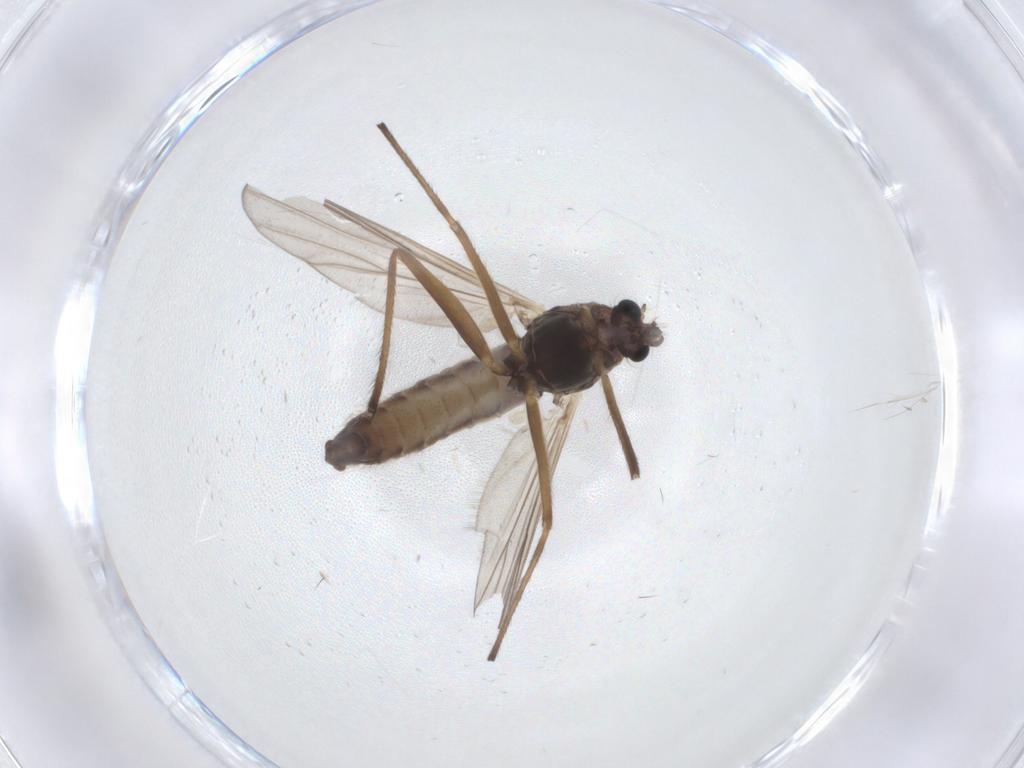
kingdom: Animalia
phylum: Arthropoda
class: Insecta
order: Diptera
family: Chironomidae
